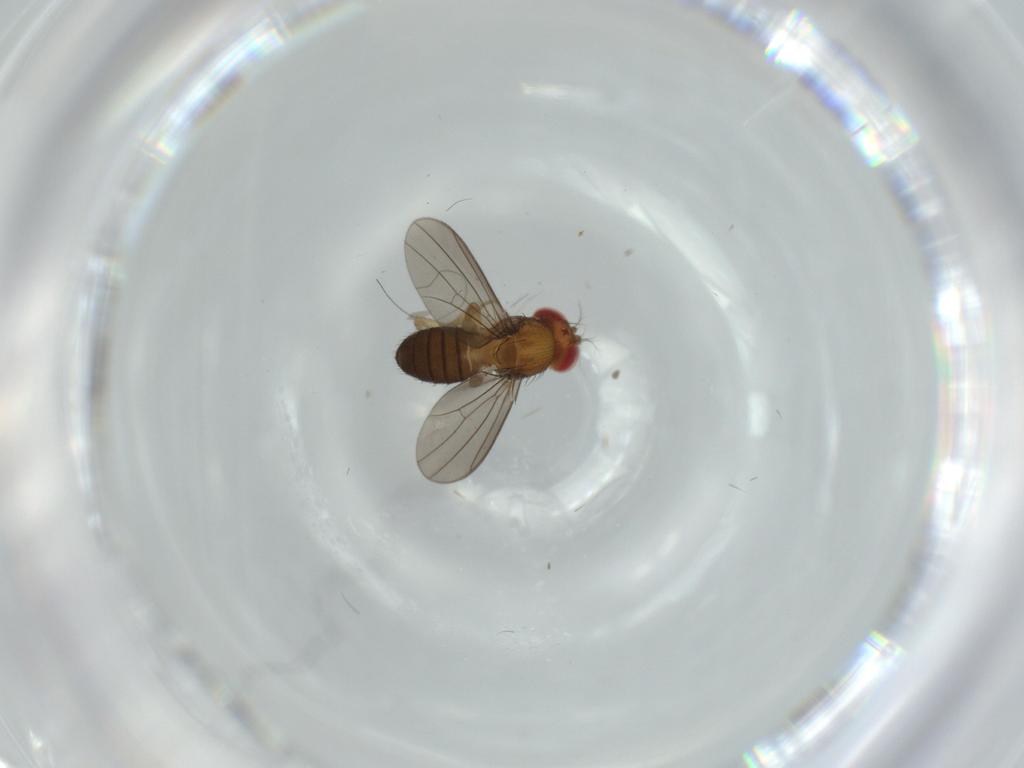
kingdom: Animalia
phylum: Arthropoda
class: Insecta
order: Diptera
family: Drosophilidae
